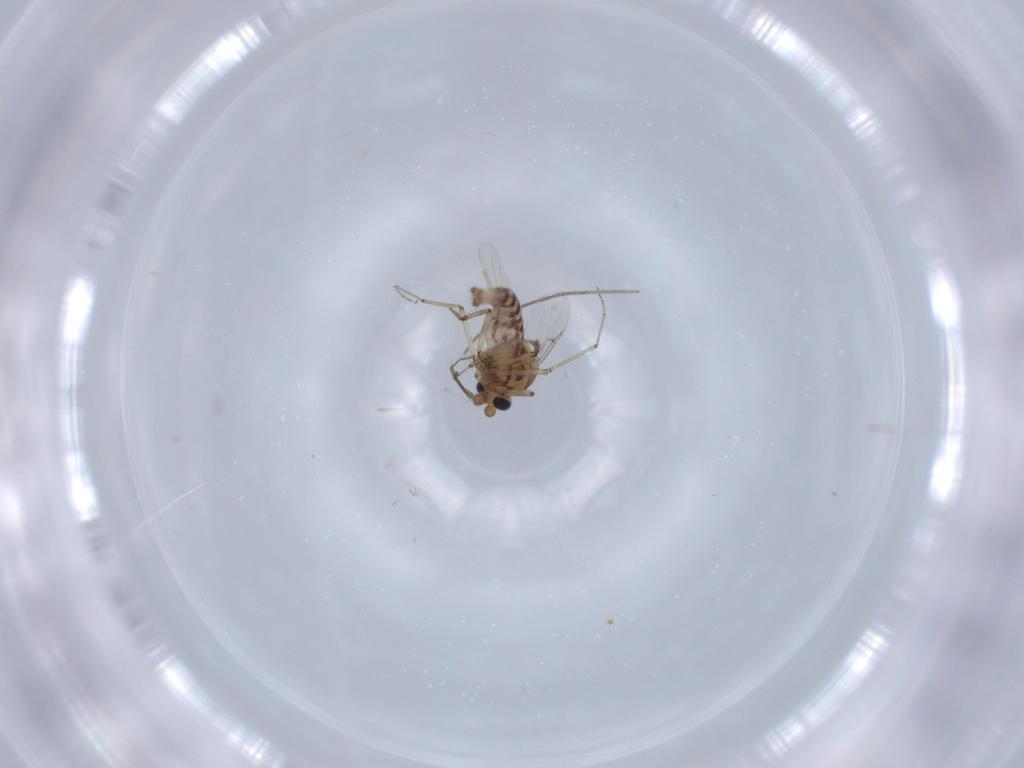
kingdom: Animalia
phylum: Arthropoda
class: Insecta
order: Diptera
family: Ceratopogonidae
